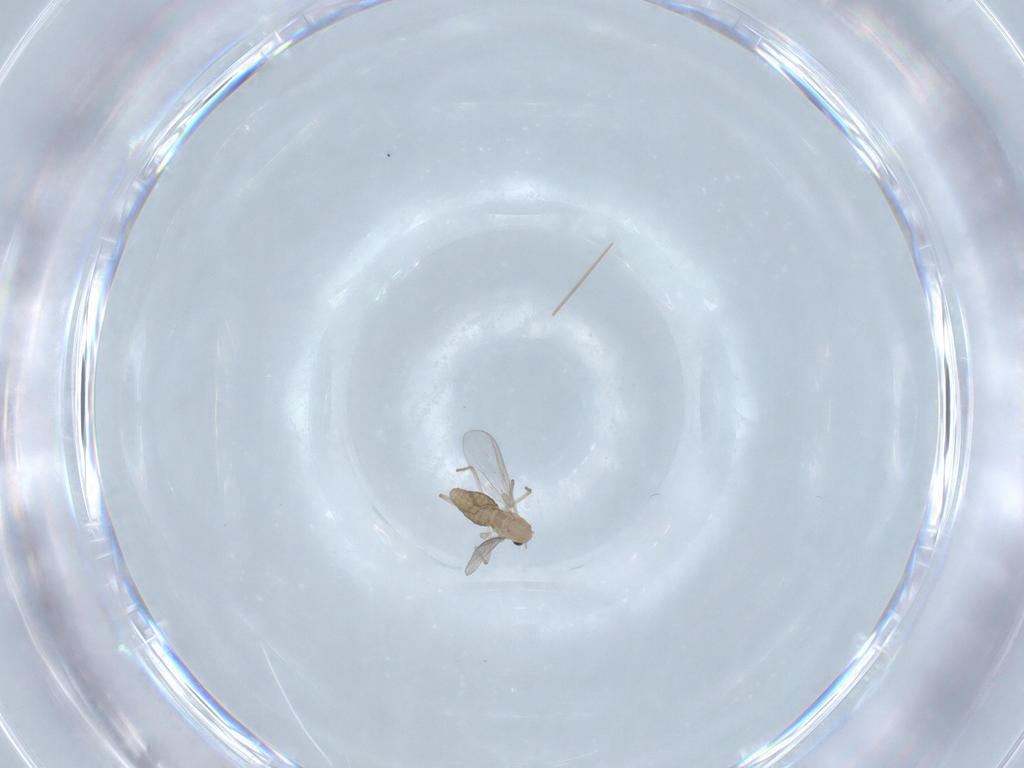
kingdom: Animalia
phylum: Arthropoda
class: Insecta
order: Diptera
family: Chironomidae
